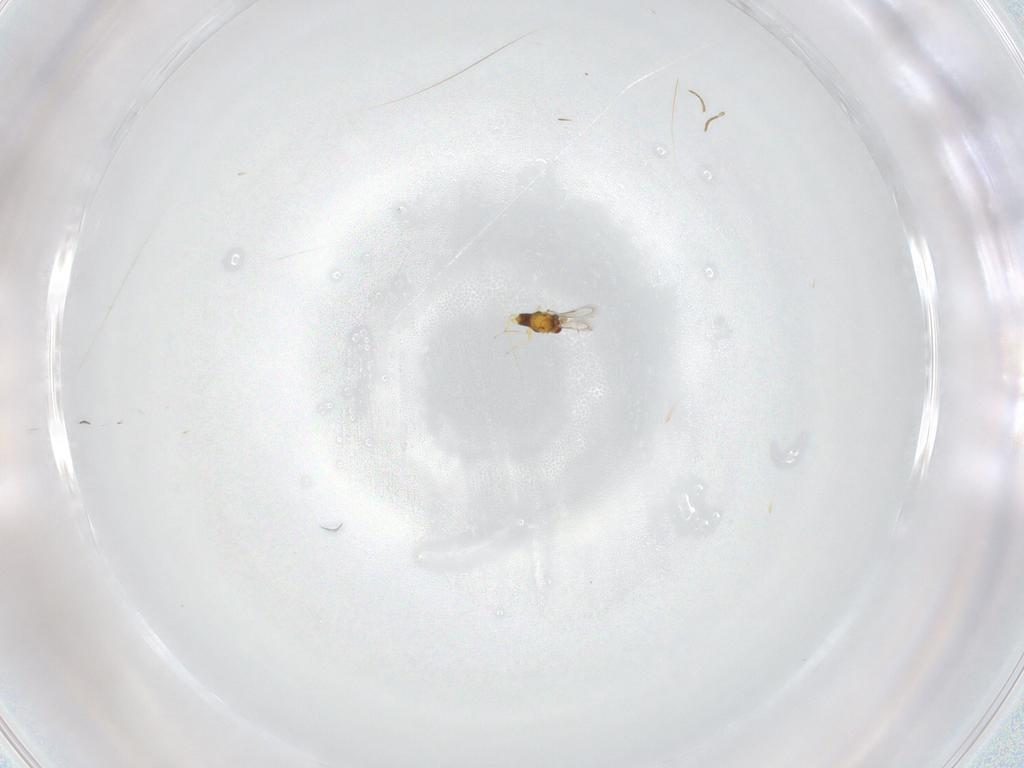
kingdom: Animalia
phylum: Arthropoda
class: Insecta
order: Hymenoptera
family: Aphelinidae
